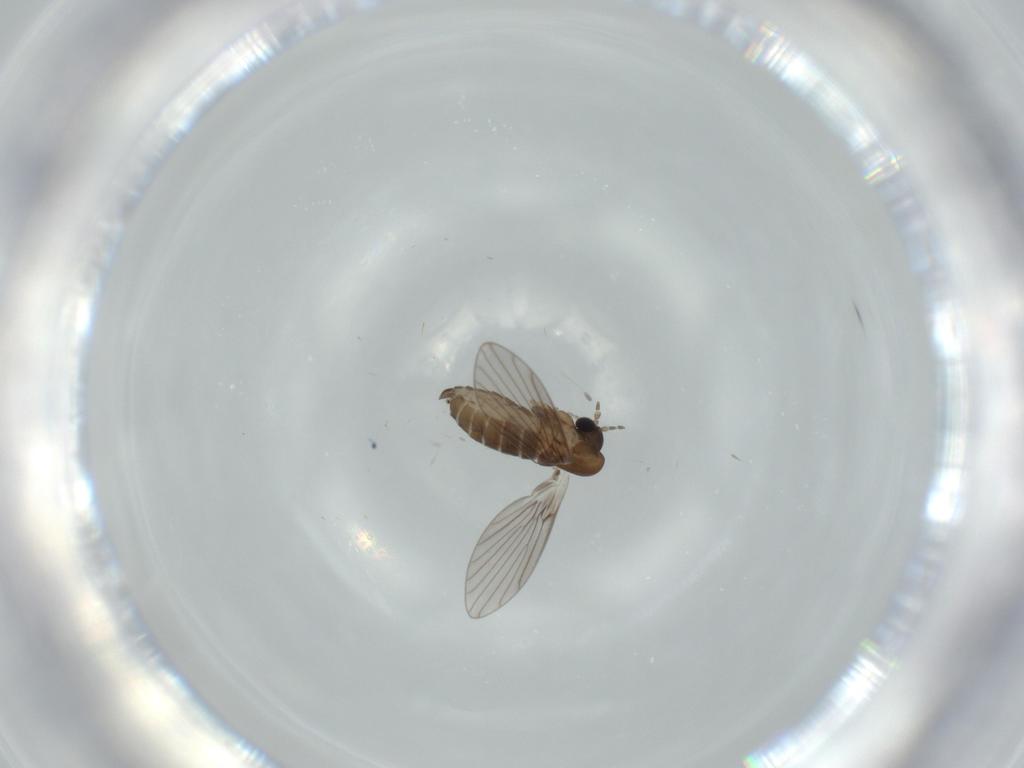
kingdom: Animalia
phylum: Arthropoda
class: Insecta
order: Diptera
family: Psychodidae
